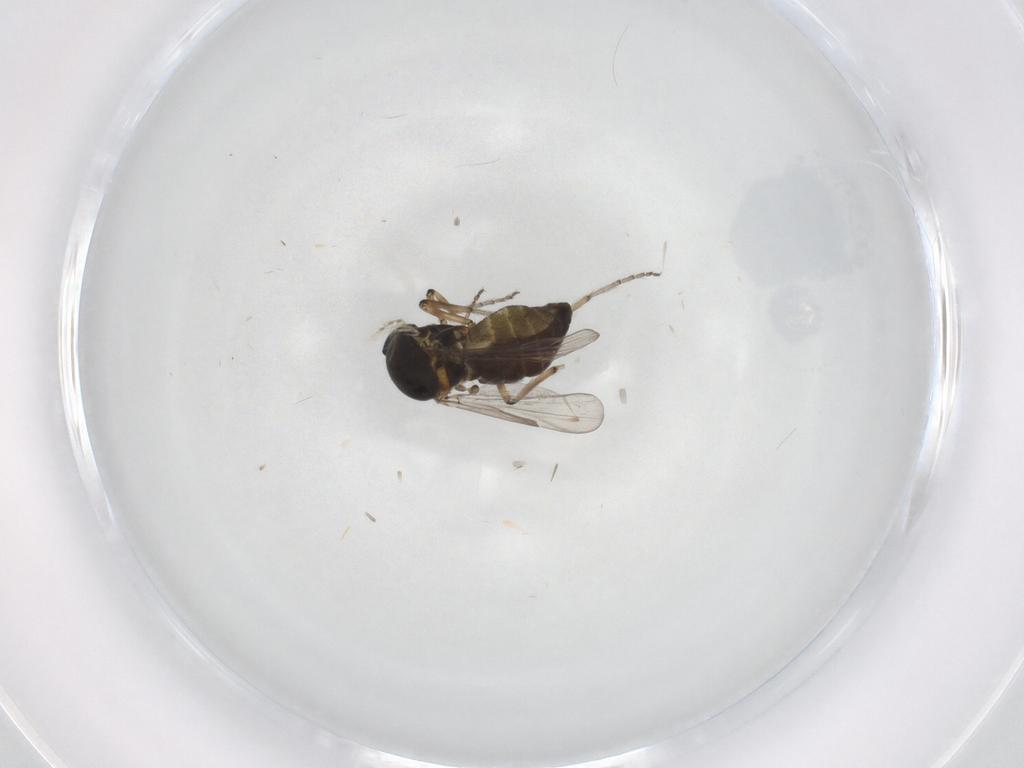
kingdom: Animalia
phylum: Arthropoda
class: Insecta
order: Diptera
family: Ceratopogonidae
